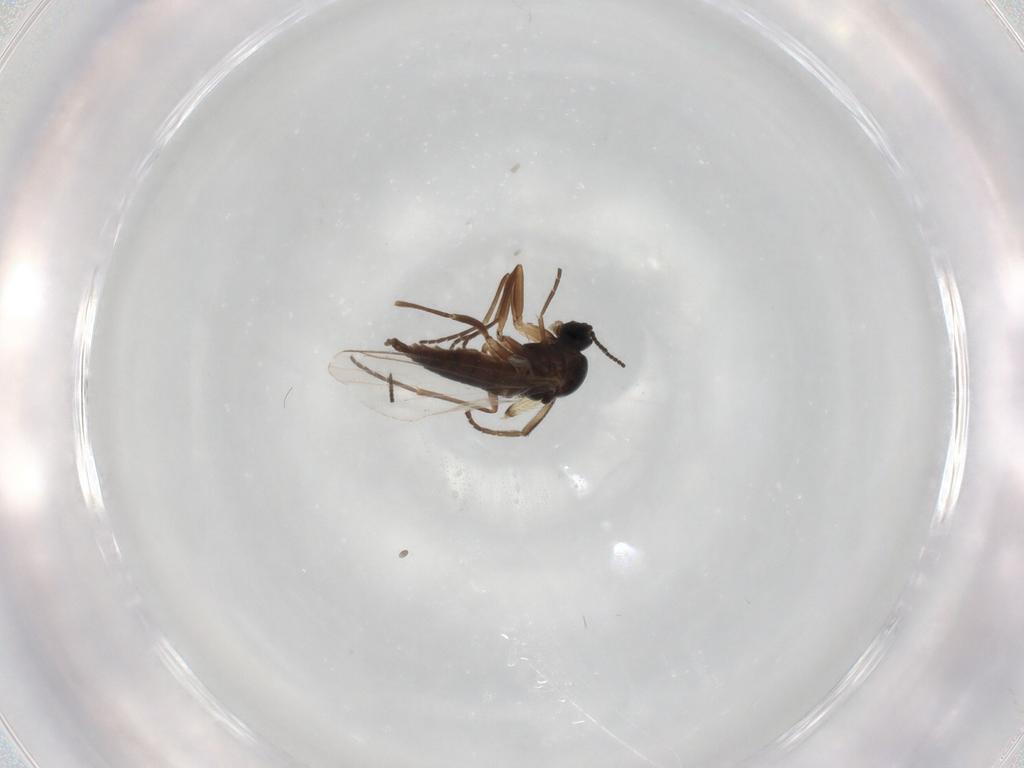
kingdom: Animalia
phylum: Arthropoda
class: Insecta
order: Diptera
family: Sciaridae
